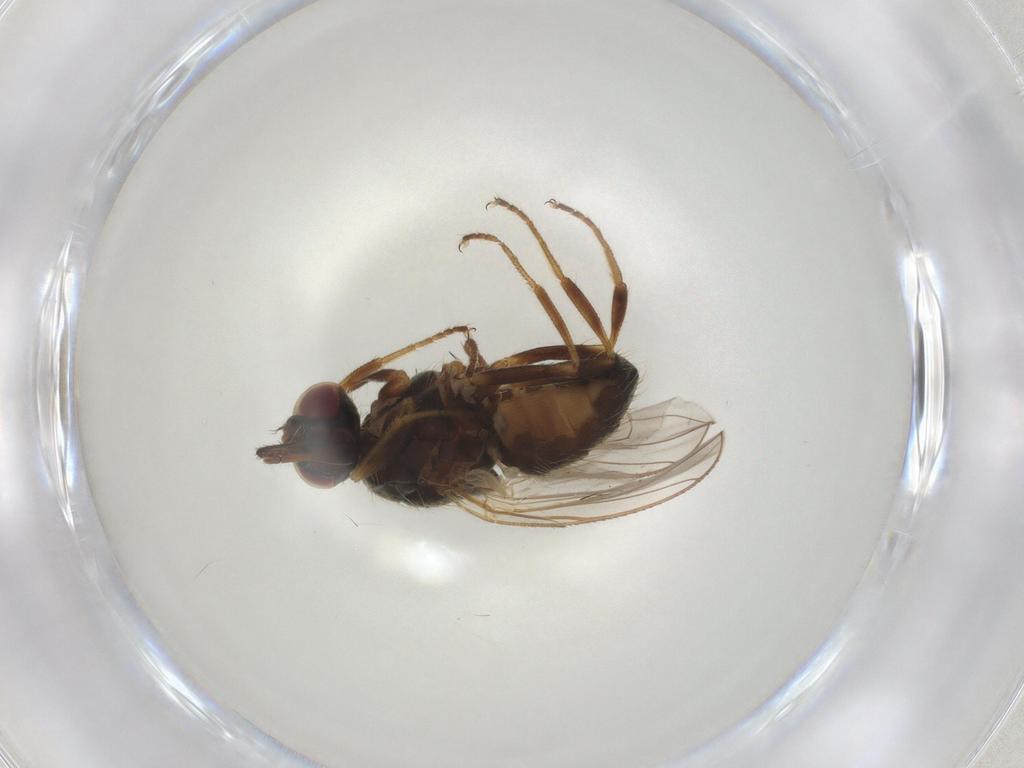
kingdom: Animalia
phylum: Arthropoda
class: Insecta
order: Diptera
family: Muscidae
